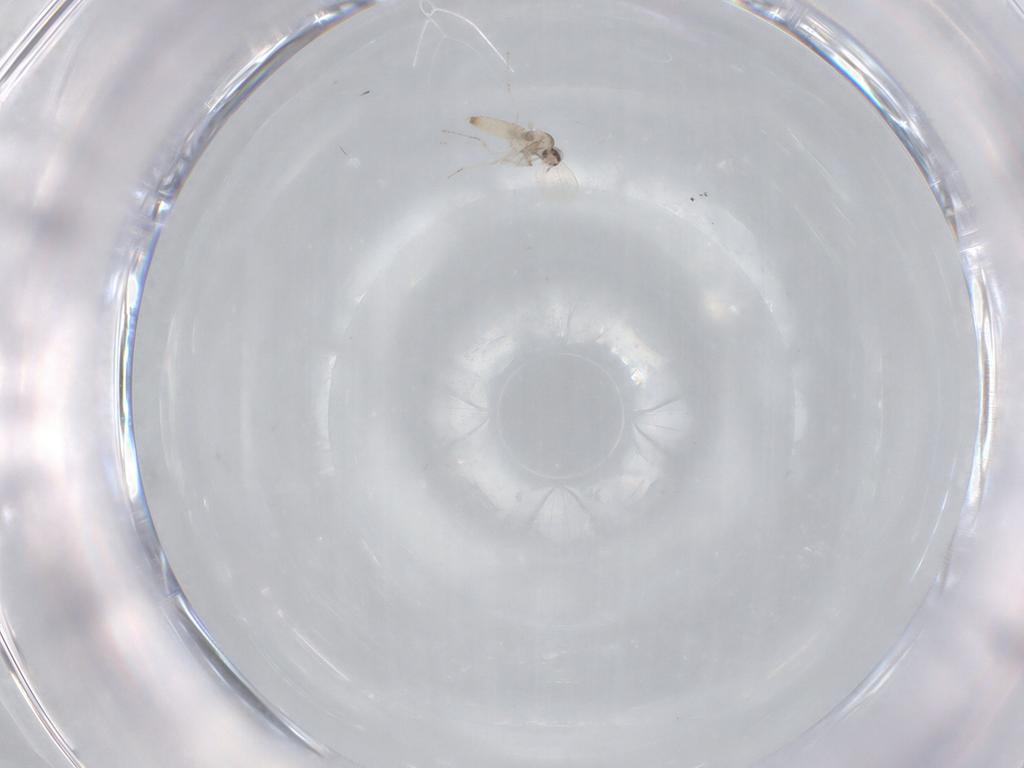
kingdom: Animalia
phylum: Arthropoda
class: Insecta
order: Diptera
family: Cecidomyiidae
